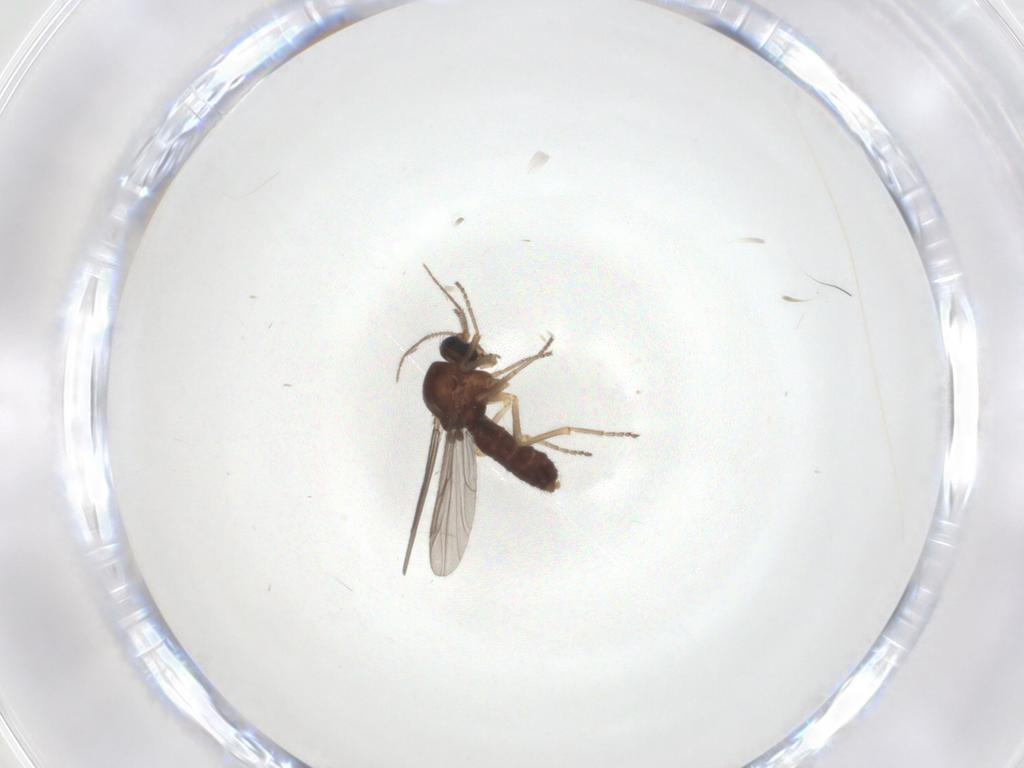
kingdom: Animalia
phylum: Arthropoda
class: Insecta
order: Diptera
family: Ceratopogonidae
